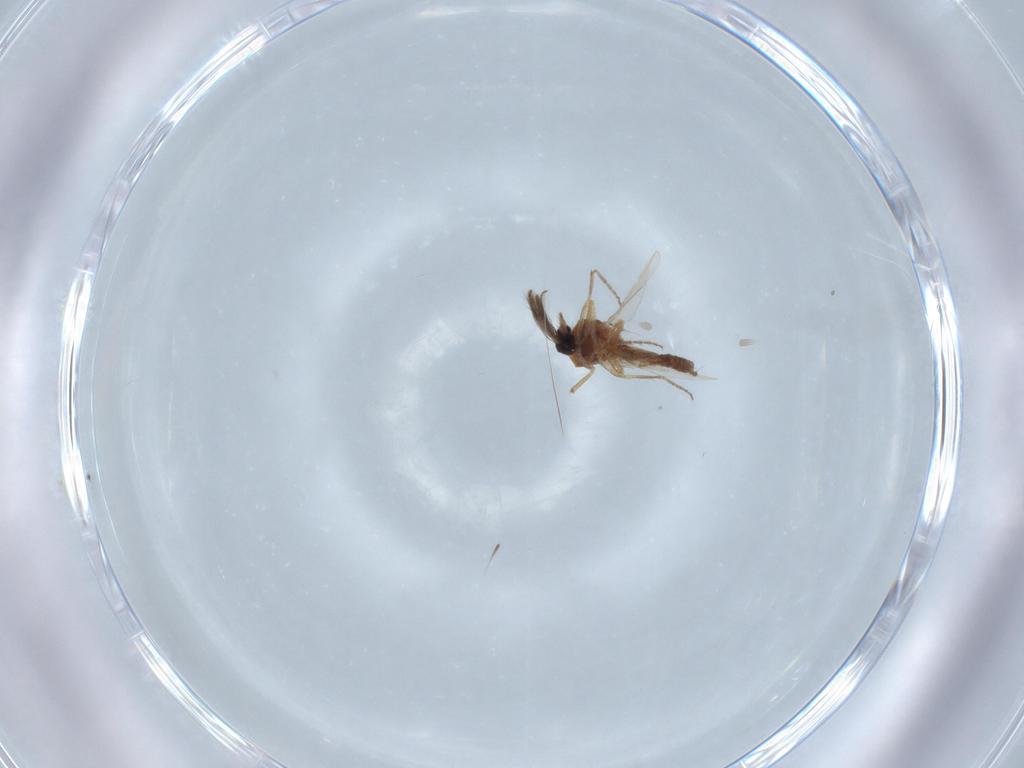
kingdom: Animalia
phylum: Arthropoda
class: Insecta
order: Diptera
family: Ceratopogonidae
